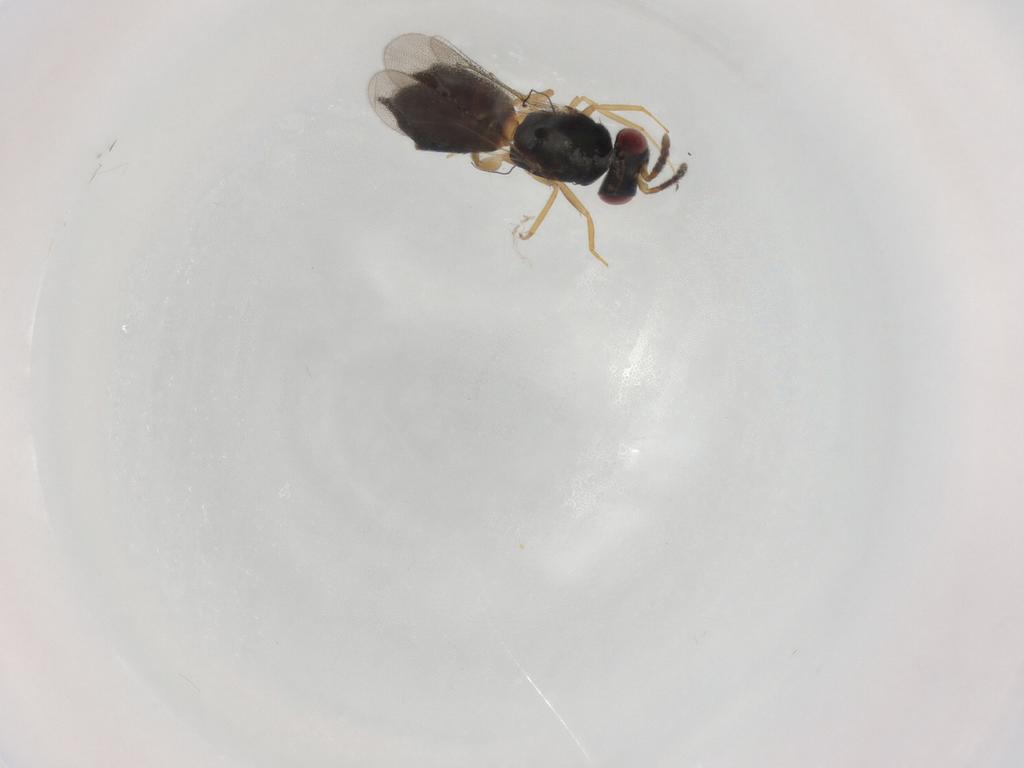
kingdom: Animalia
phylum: Arthropoda
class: Insecta
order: Hymenoptera
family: Eulophidae
